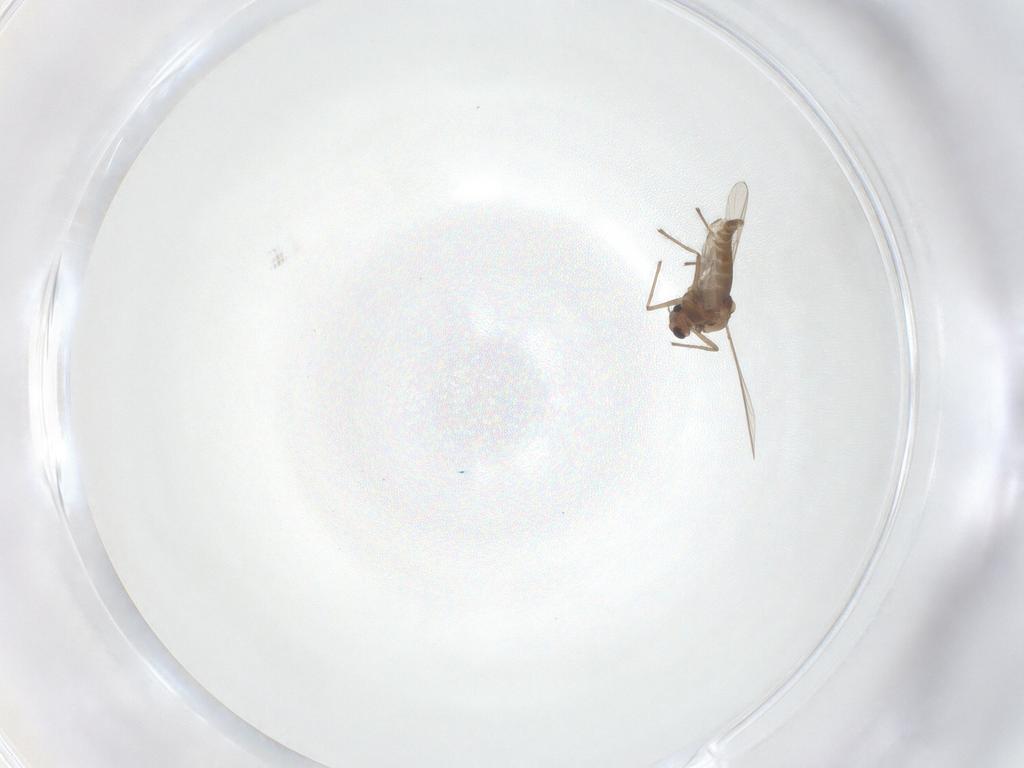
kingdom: Animalia
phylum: Arthropoda
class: Insecta
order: Diptera
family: Chironomidae
